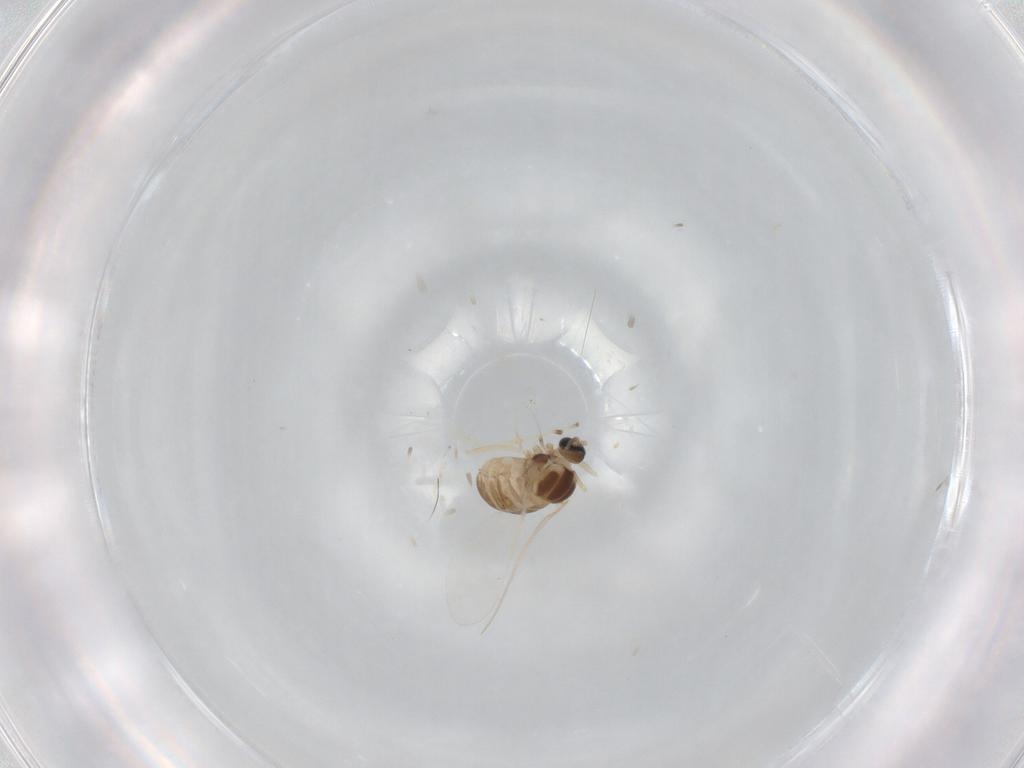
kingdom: Animalia
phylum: Arthropoda
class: Insecta
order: Diptera
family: Cecidomyiidae
